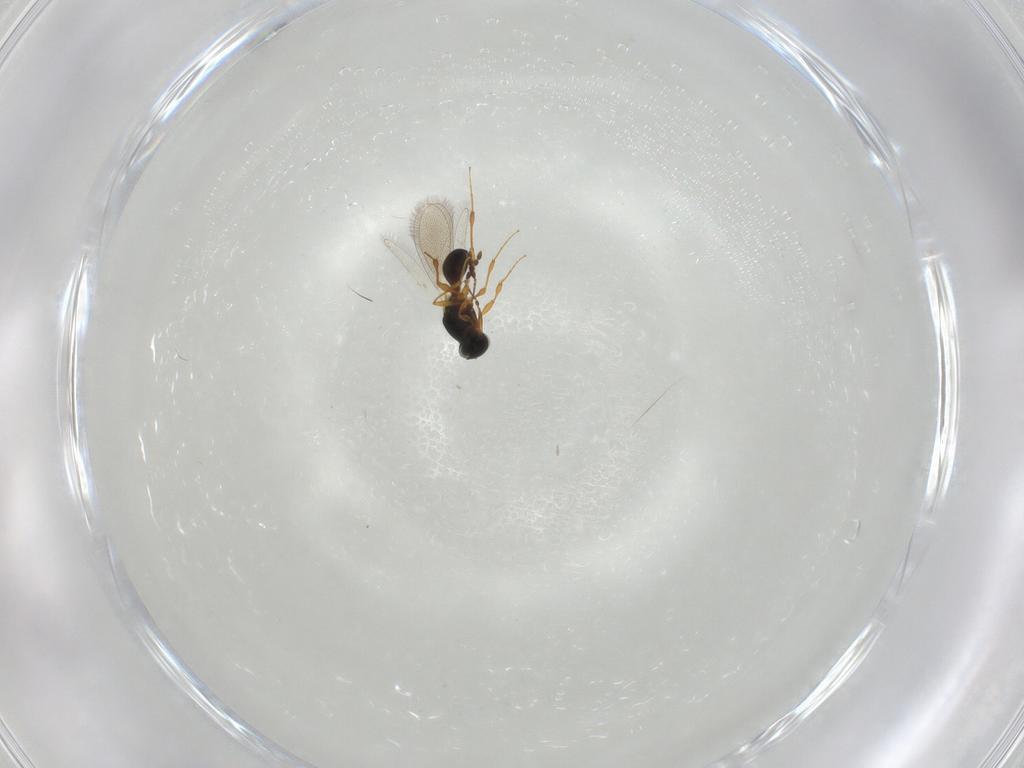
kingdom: Animalia
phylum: Arthropoda
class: Insecta
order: Hymenoptera
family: Platygastridae
